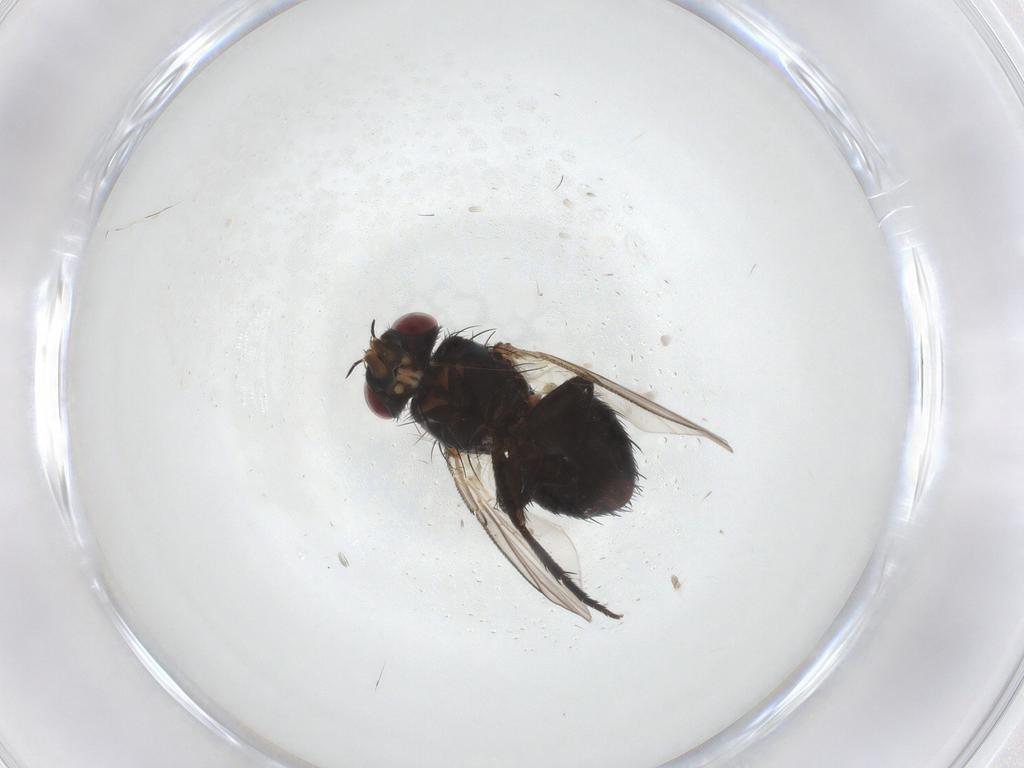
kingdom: Animalia
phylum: Arthropoda
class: Insecta
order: Diptera
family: Tachinidae
